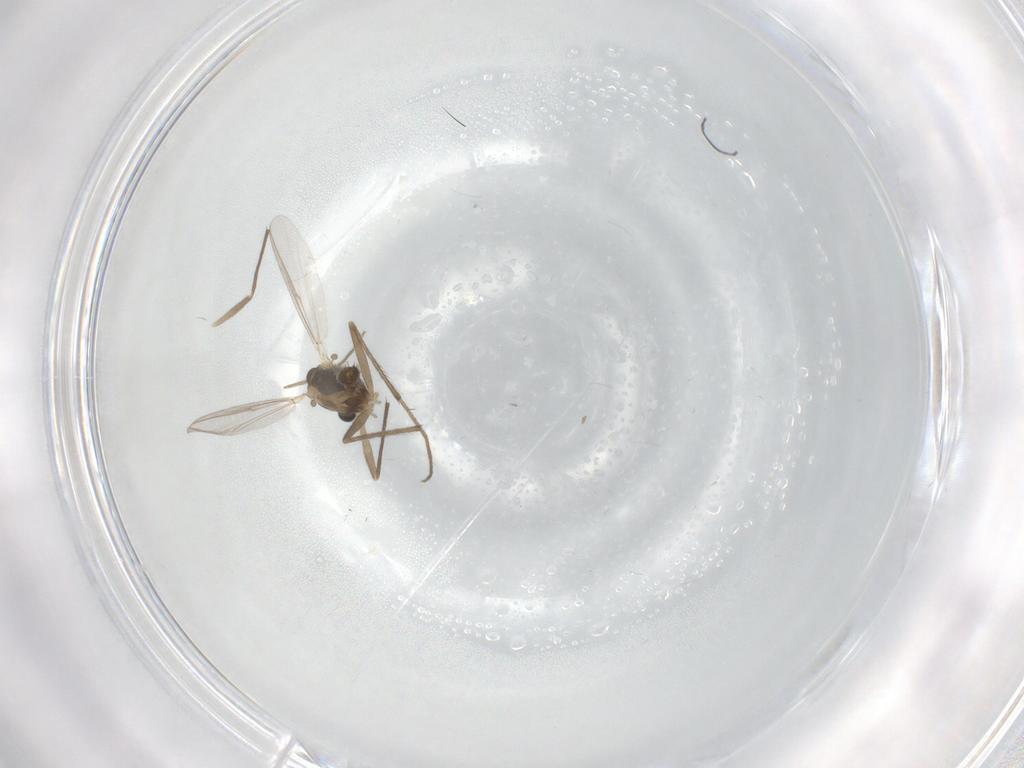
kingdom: Animalia
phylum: Arthropoda
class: Insecta
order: Diptera
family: Chironomidae
